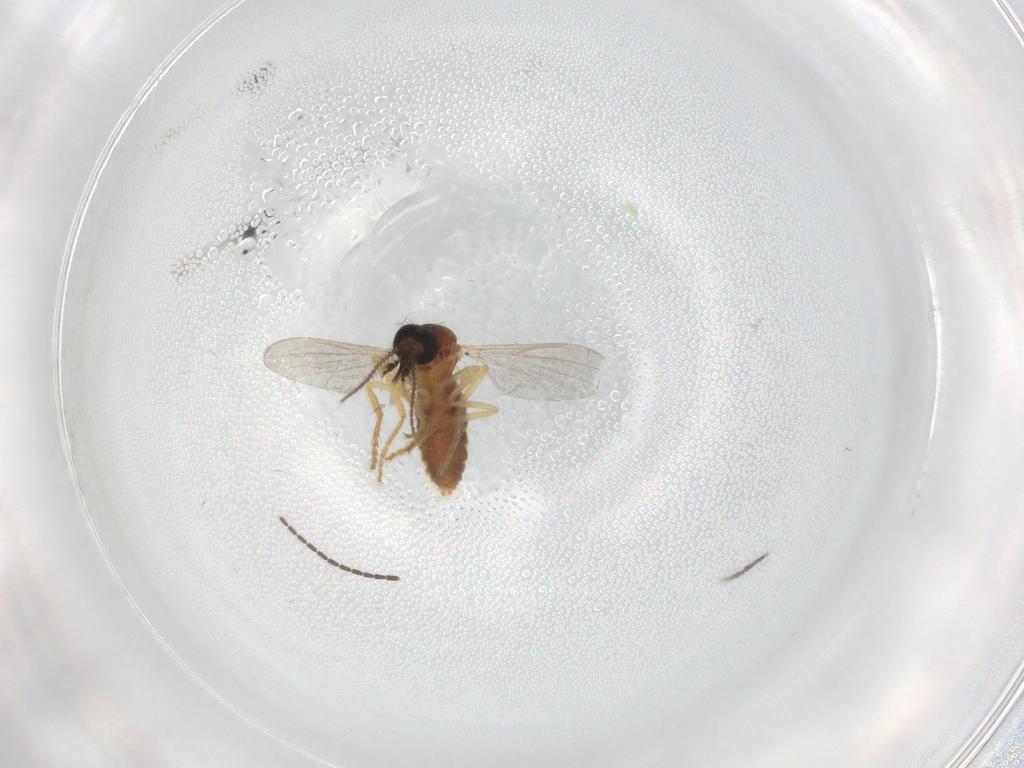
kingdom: Animalia
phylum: Arthropoda
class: Insecta
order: Diptera
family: Ceratopogonidae
